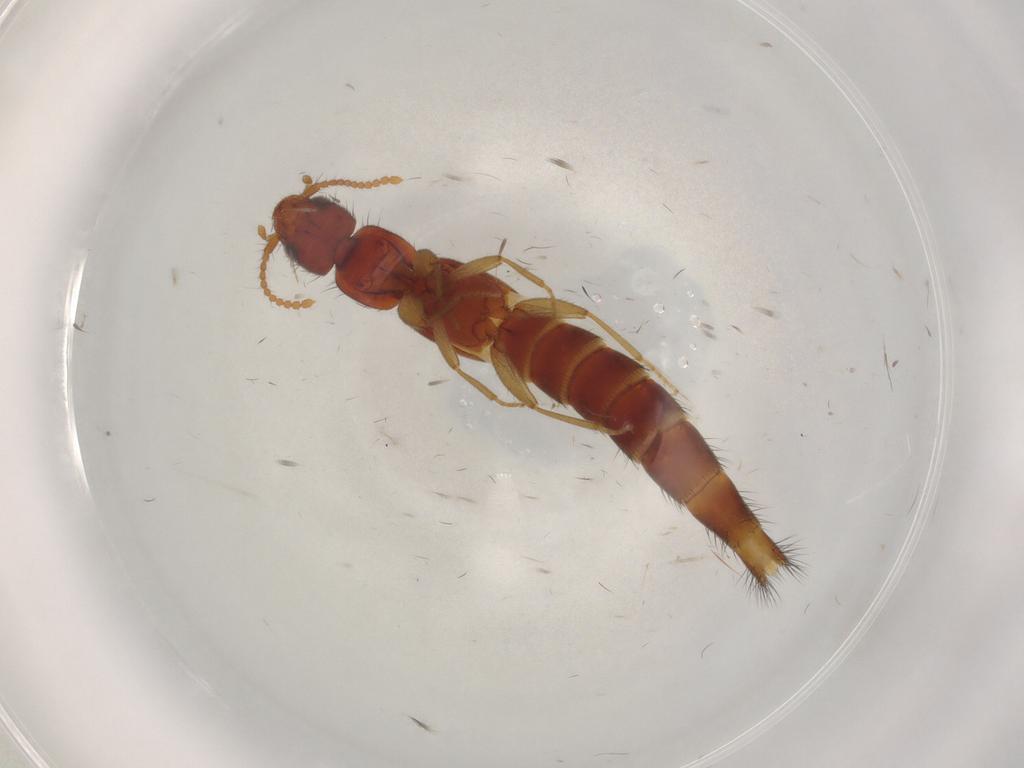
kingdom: Animalia
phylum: Arthropoda
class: Insecta
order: Coleoptera
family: Staphylinidae
